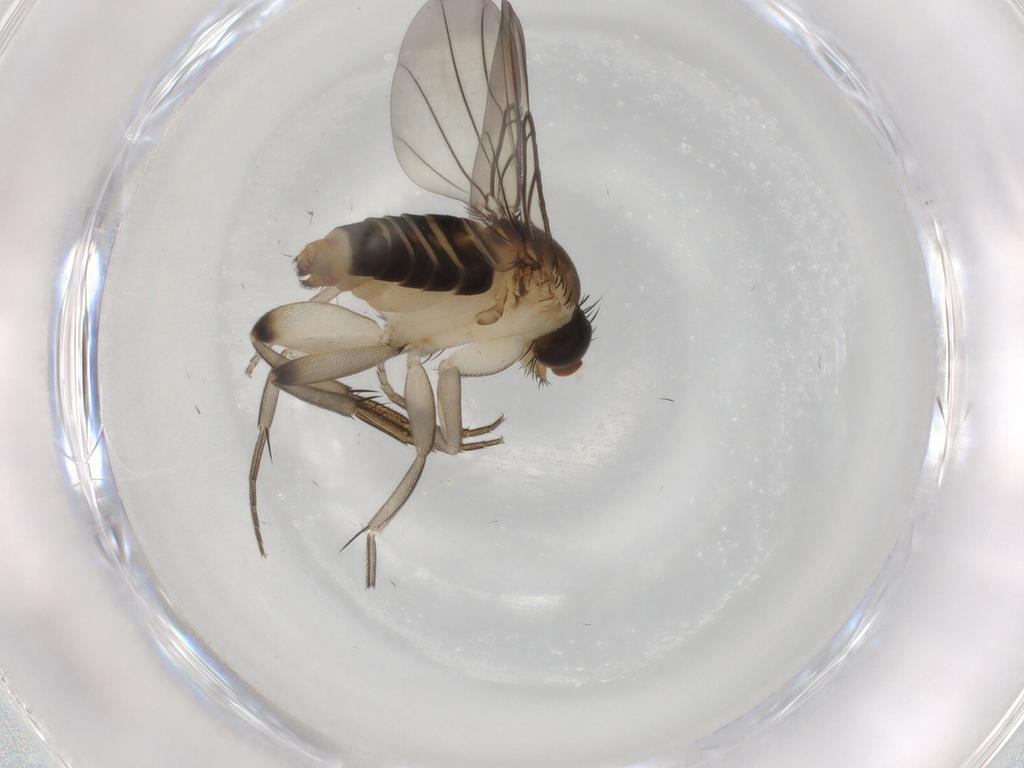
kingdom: Animalia
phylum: Arthropoda
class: Insecta
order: Diptera
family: Phoridae
